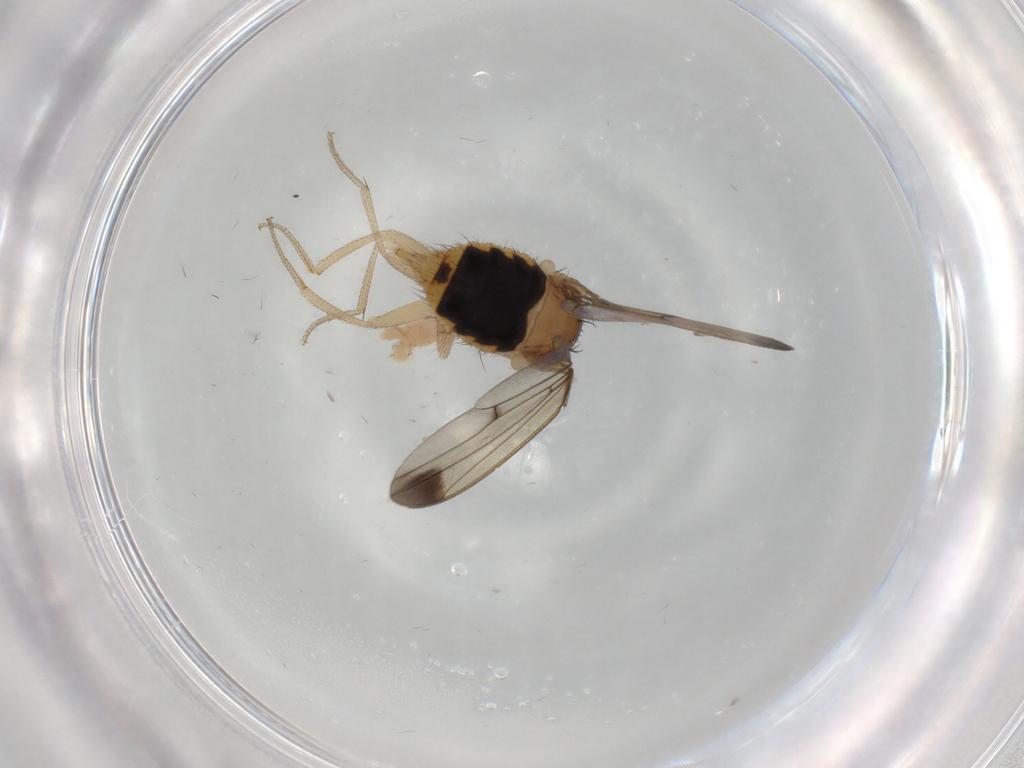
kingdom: Animalia
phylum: Arthropoda
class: Insecta
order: Diptera
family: Drosophilidae
